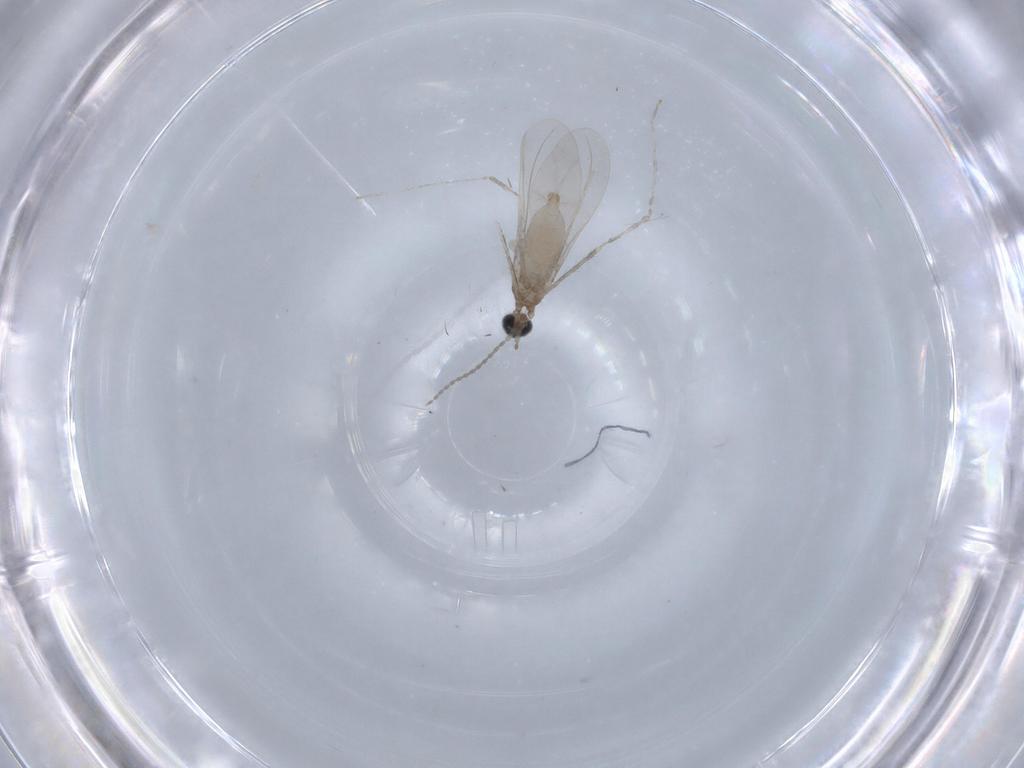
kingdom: Animalia
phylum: Arthropoda
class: Insecta
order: Diptera
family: Cecidomyiidae
